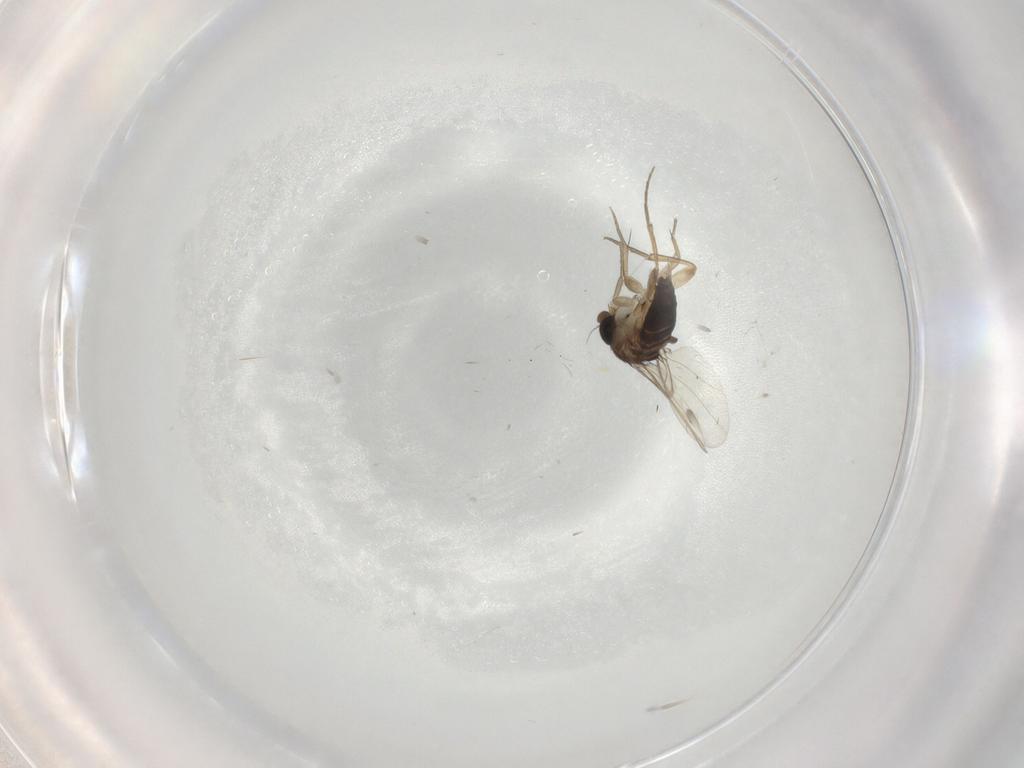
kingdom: Animalia
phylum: Arthropoda
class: Insecta
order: Diptera
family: Phoridae
